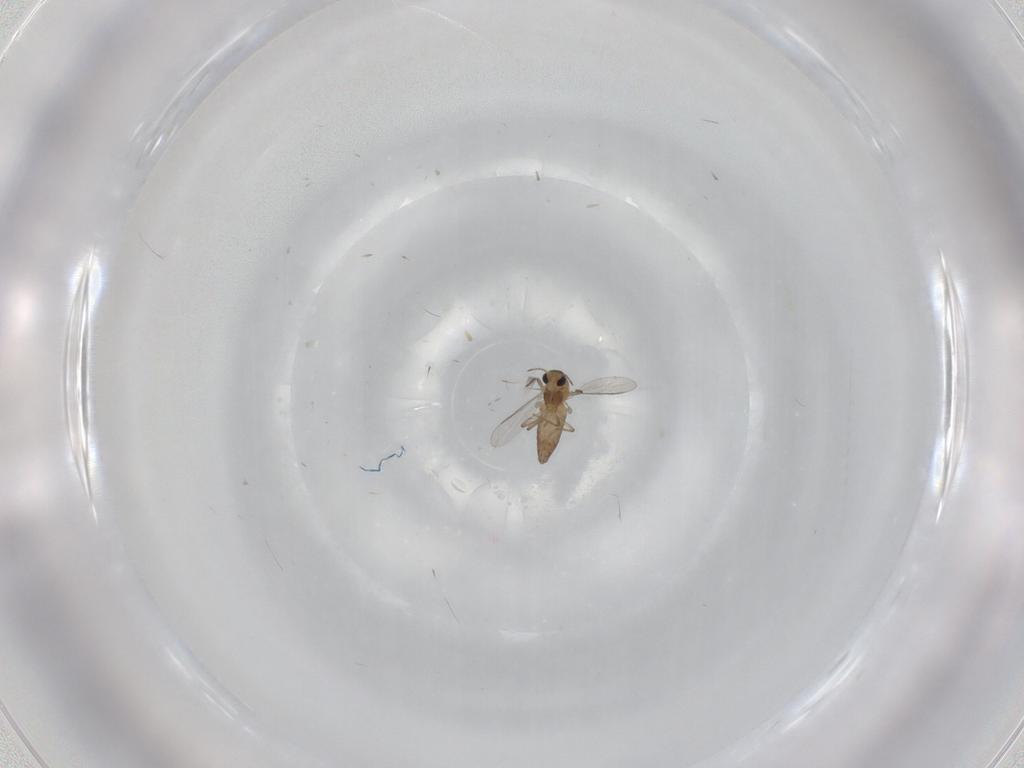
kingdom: Animalia
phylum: Arthropoda
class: Insecta
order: Diptera
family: Chironomidae
